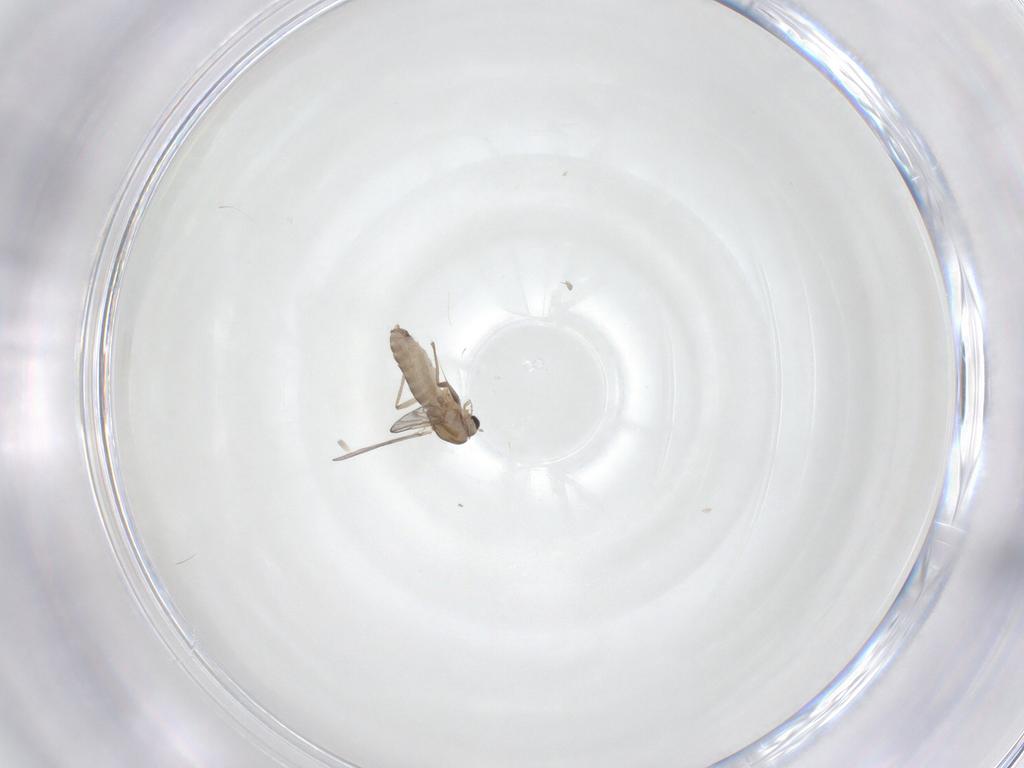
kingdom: Animalia
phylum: Arthropoda
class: Insecta
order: Diptera
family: Chironomidae
